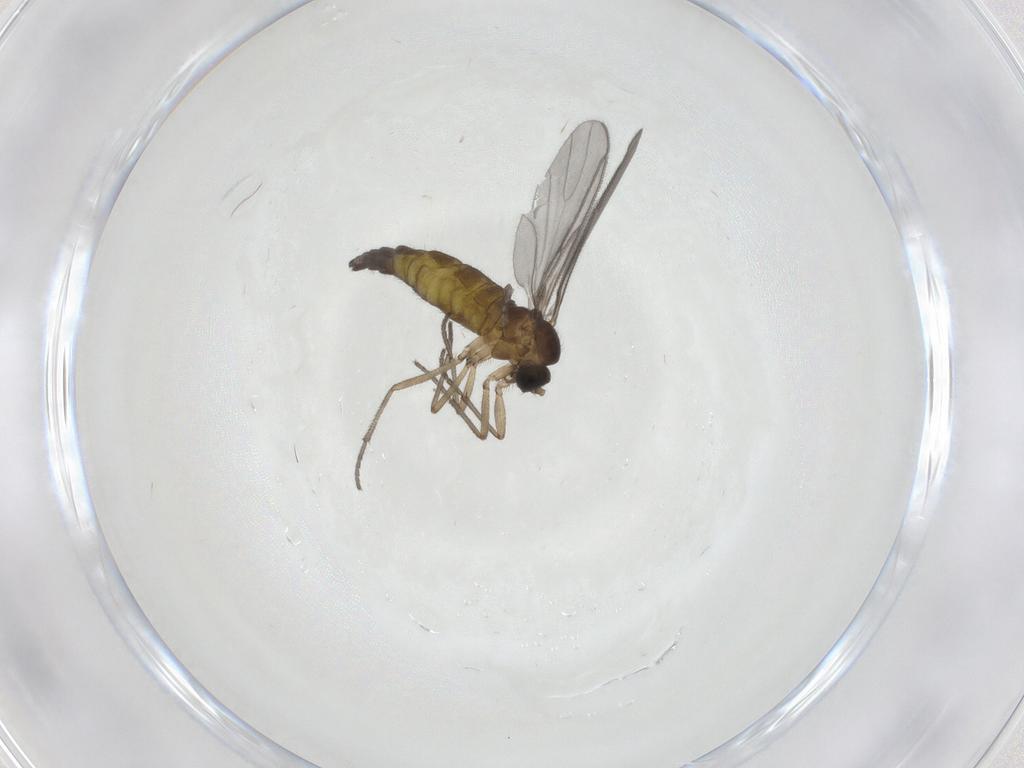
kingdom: Animalia
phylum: Arthropoda
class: Insecta
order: Diptera
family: Sciaridae
